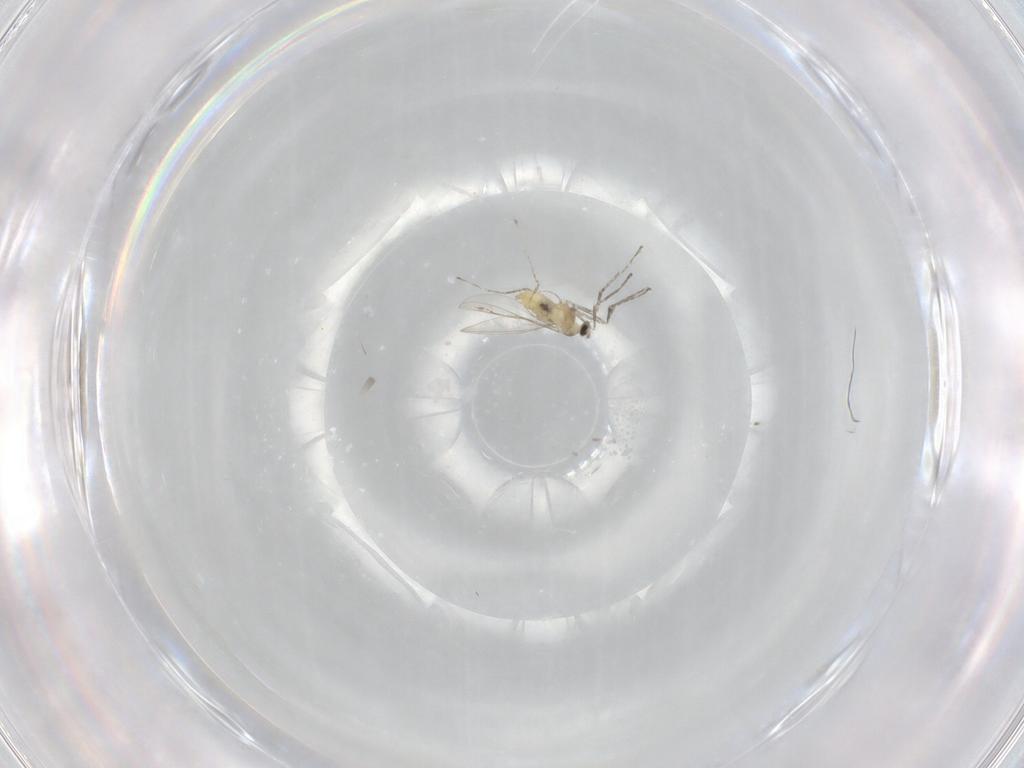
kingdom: Animalia
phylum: Arthropoda
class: Insecta
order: Diptera
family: Cecidomyiidae
